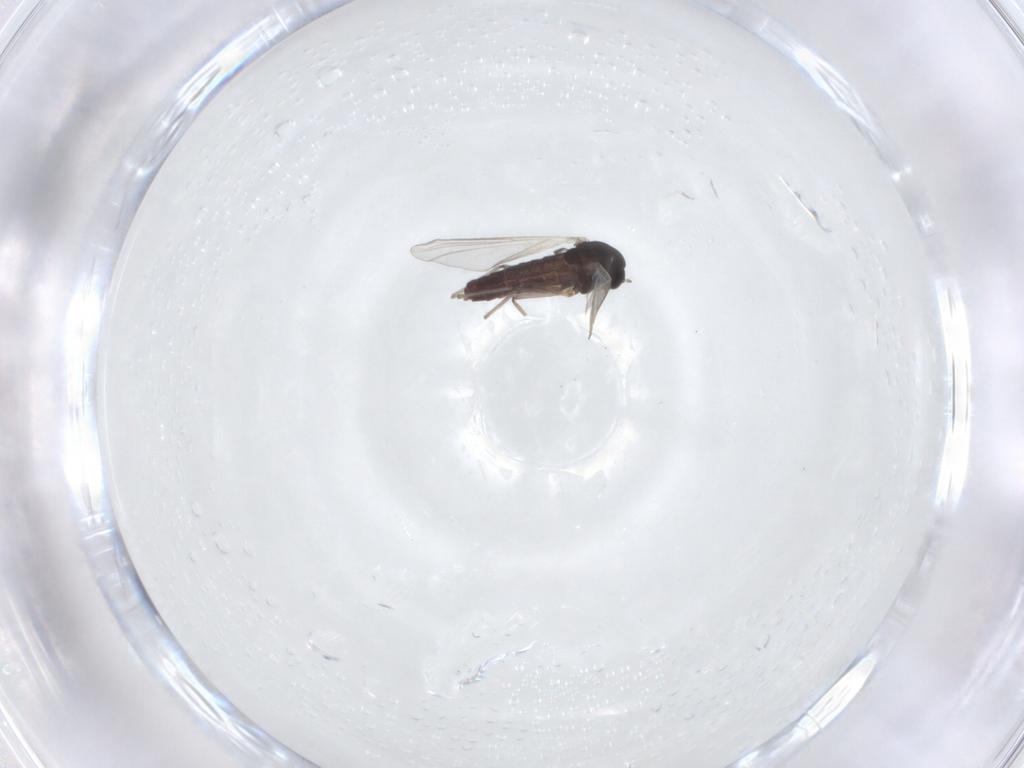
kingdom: Animalia
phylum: Arthropoda
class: Insecta
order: Diptera
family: Chironomidae
